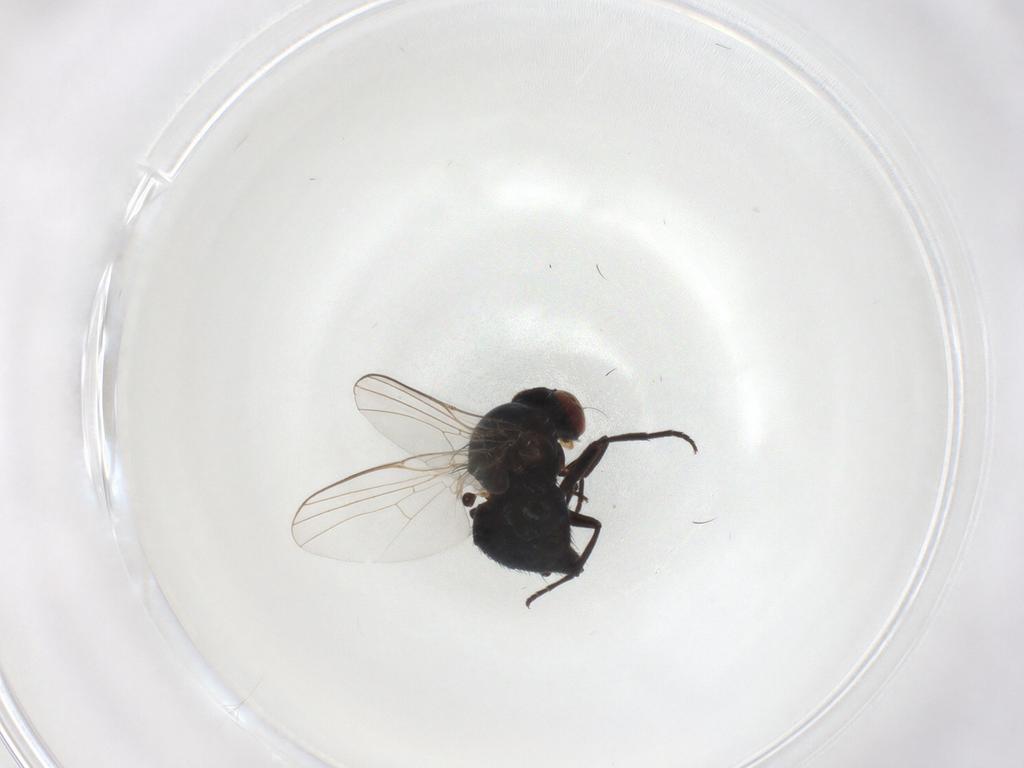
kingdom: Animalia
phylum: Arthropoda
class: Insecta
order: Diptera
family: Agromyzidae
